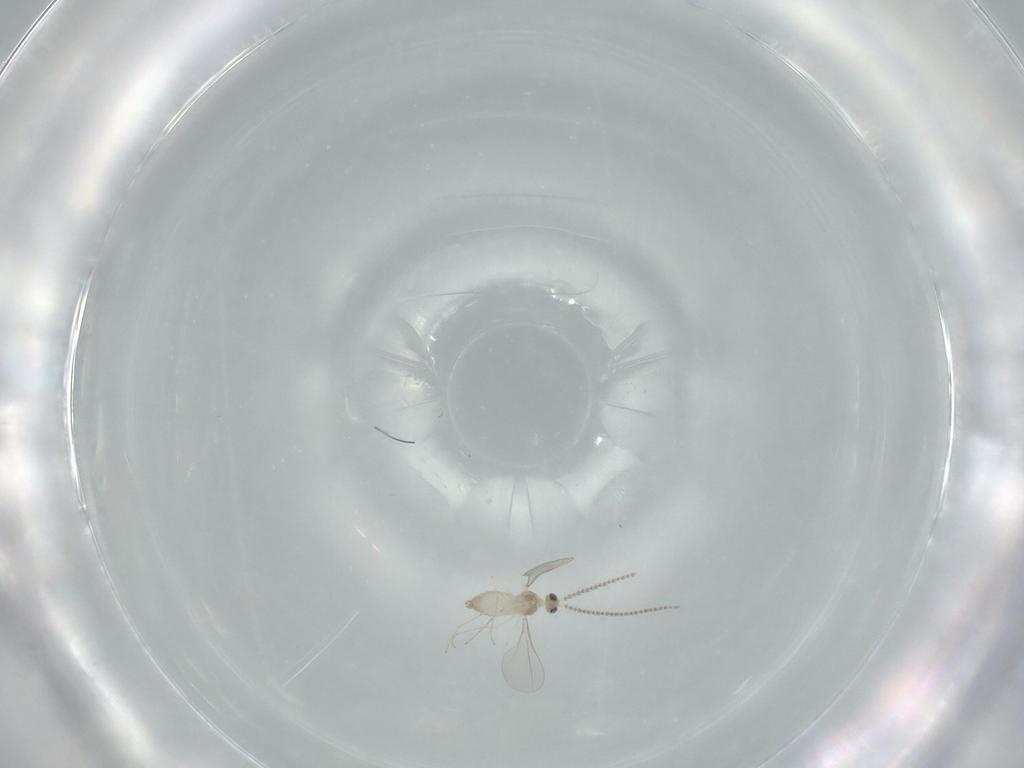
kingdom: Animalia
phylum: Arthropoda
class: Insecta
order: Diptera
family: Cecidomyiidae
